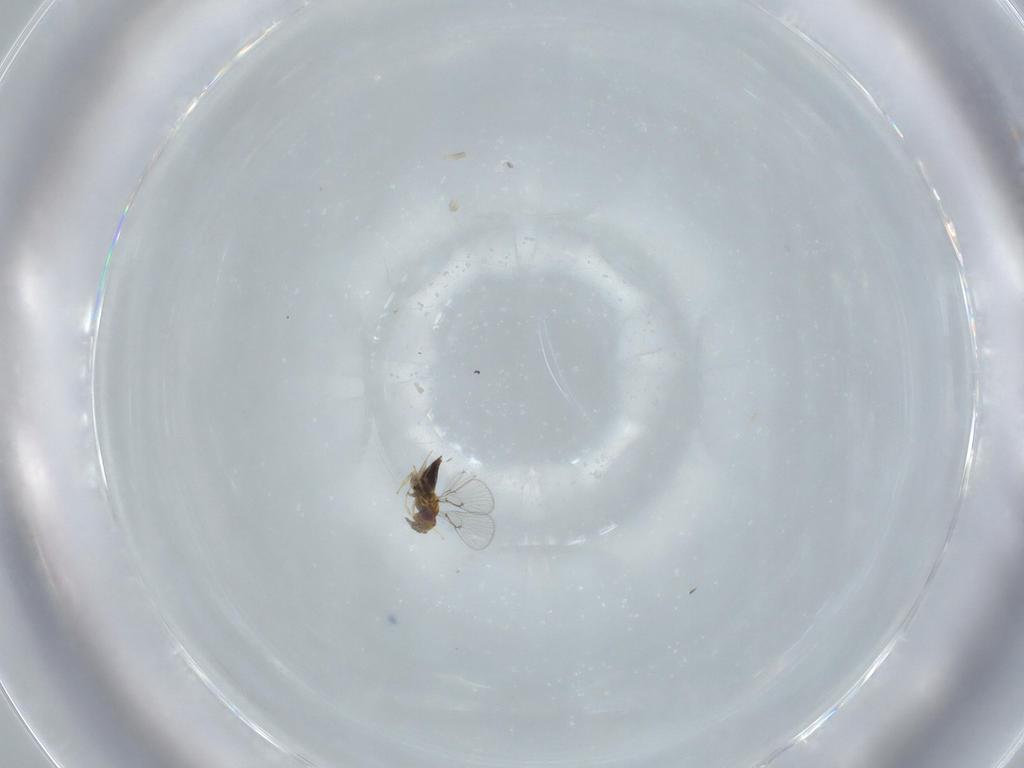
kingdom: Animalia
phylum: Arthropoda
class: Insecta
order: Hymenoptera
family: Trichogrammatidae
